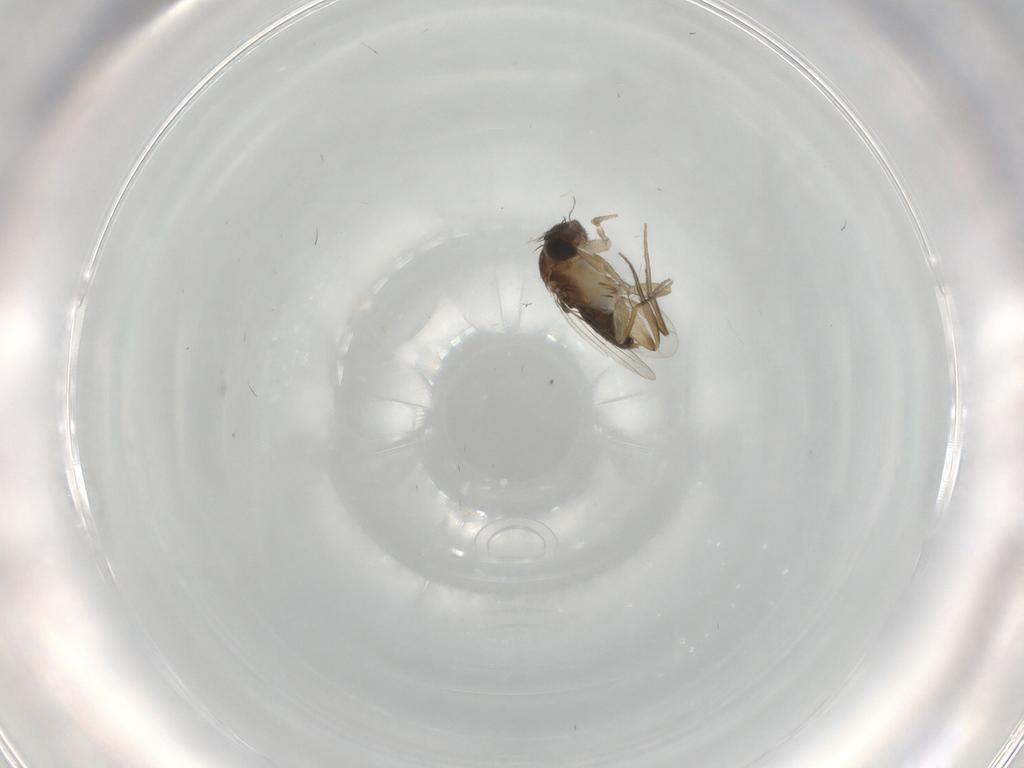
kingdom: Animalia
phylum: Arthropoda
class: Insecta
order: Diptera
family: Phoridae
